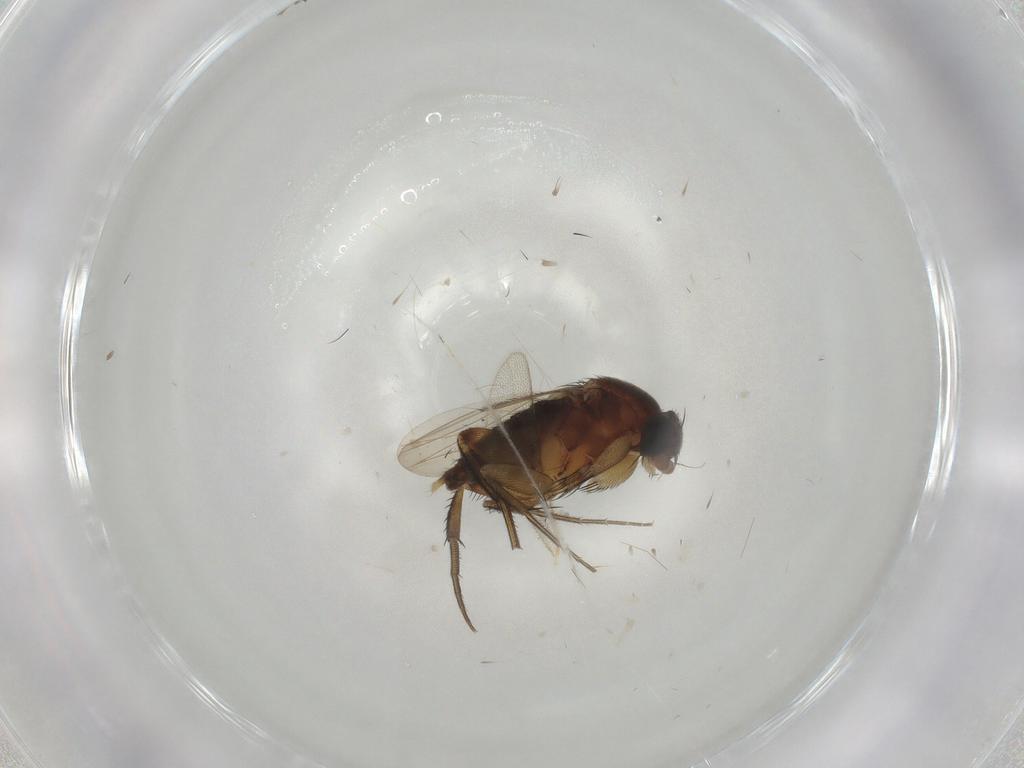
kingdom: Animalia
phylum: Arthropoda
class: Insecta
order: Diptera
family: Phoridae
